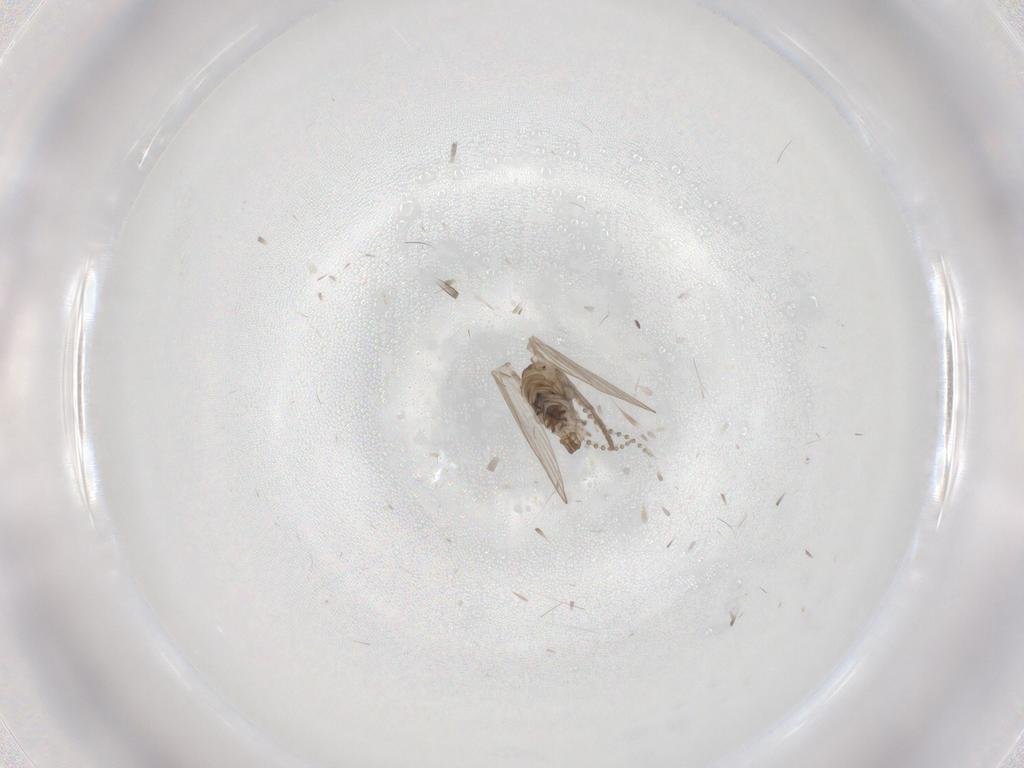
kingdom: Animalia
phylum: Arthropoda
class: Insecta
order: Diptera
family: Psychodidae
